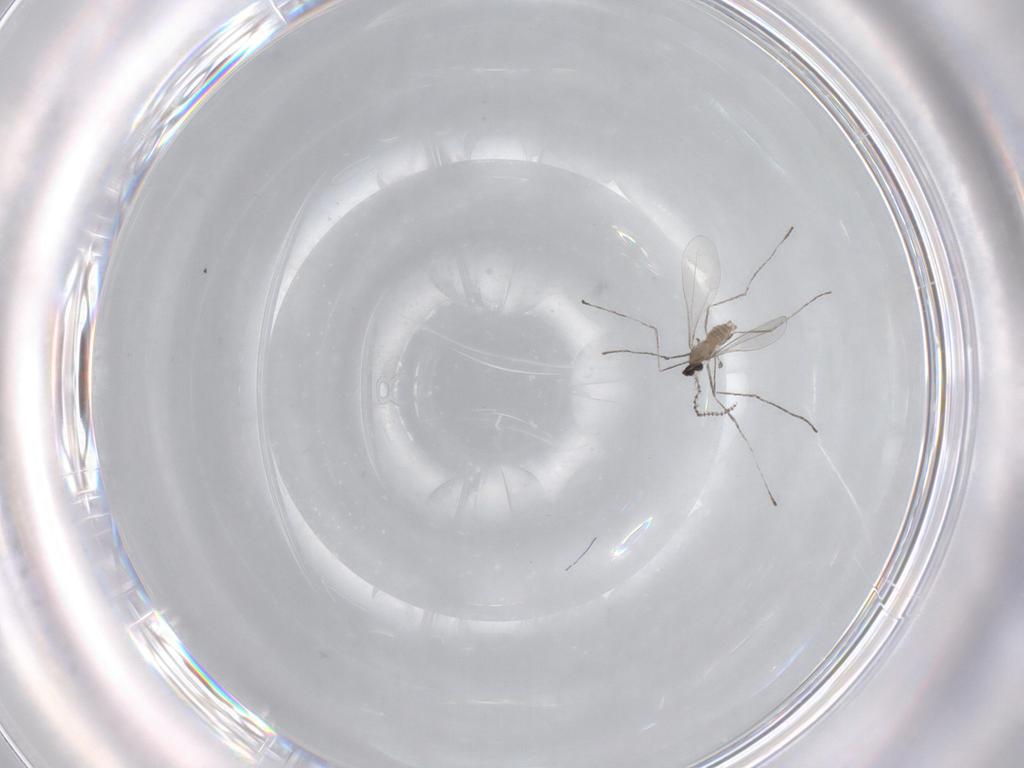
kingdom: Animalia
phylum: Arthropoda
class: Insecta
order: Diptera
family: Cecidomyiidae
